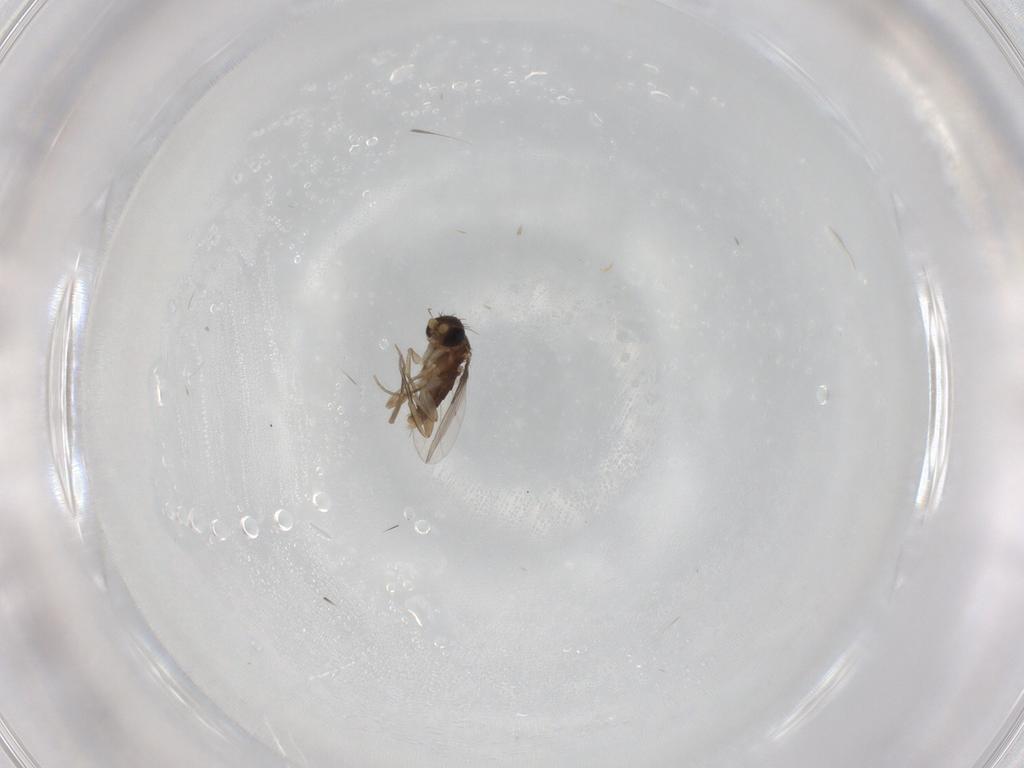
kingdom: Animalia
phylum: Arthropoda
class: Insecta
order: Diptera
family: Phoridae
